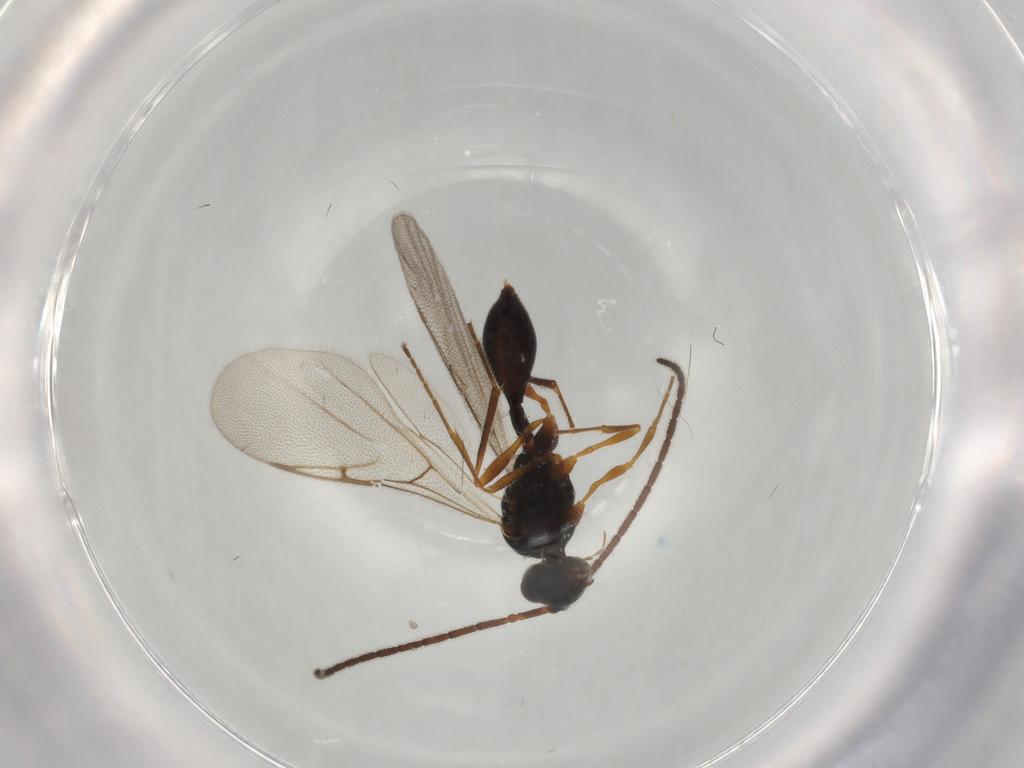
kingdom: Animalia
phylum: Arthropoda
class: Insecta
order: Hymenoptera
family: Ichneumonidae
